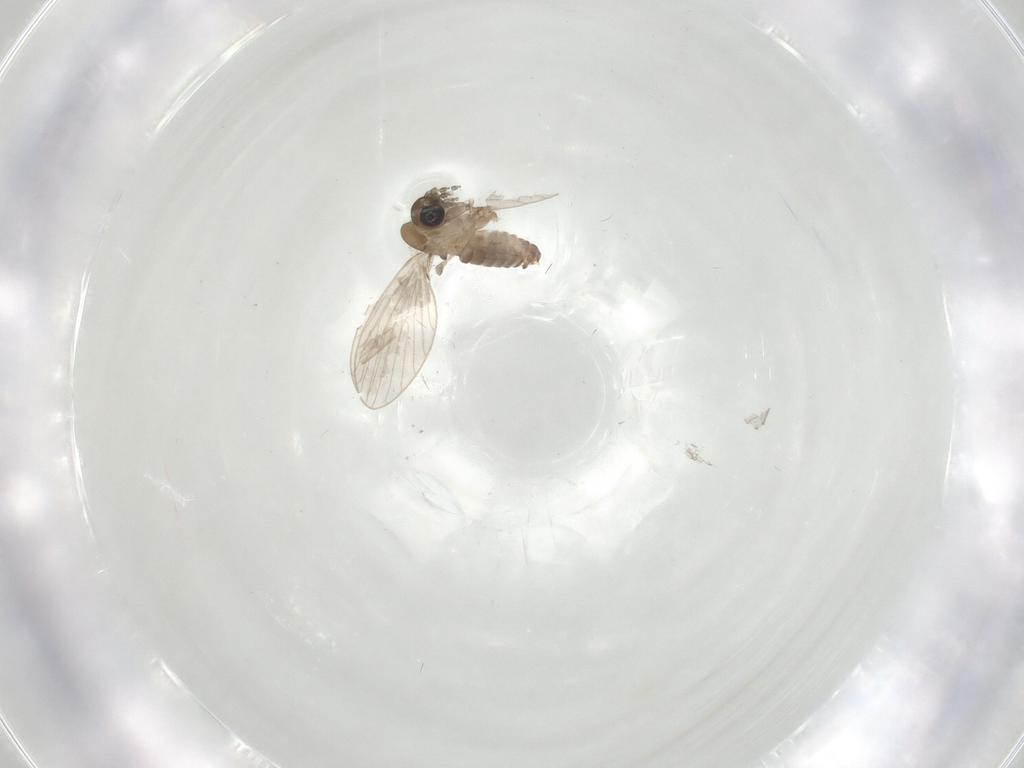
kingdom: Animalia
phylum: Arthropoda
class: Insecta
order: Diptera
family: Psychodidae
